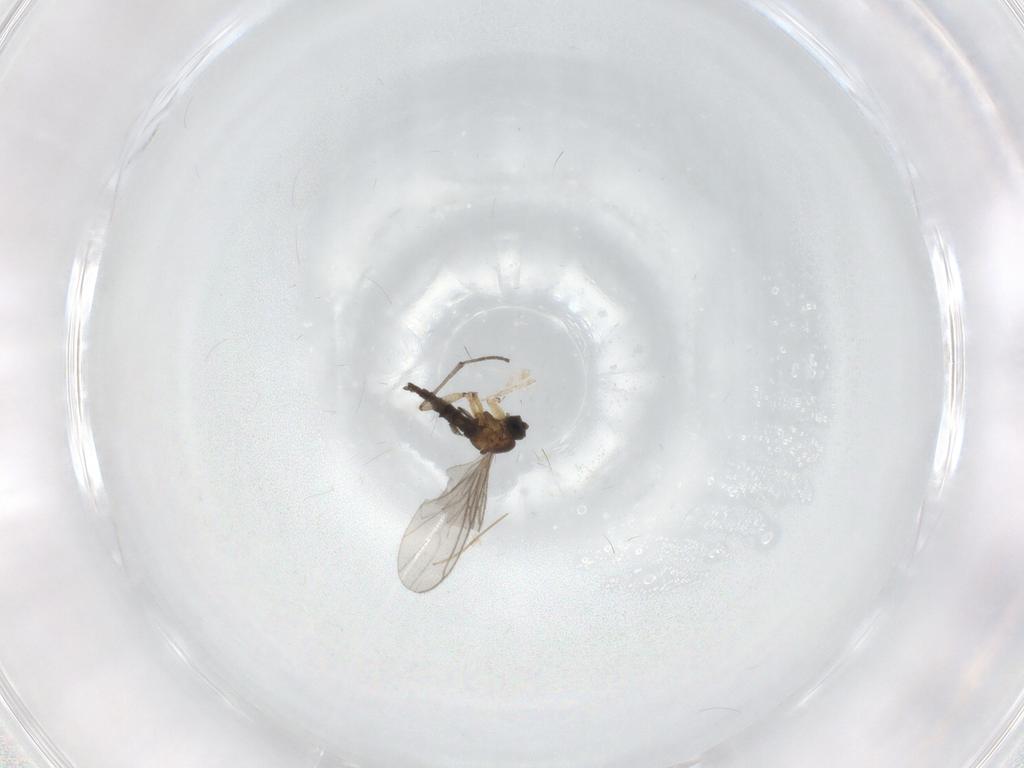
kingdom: Animalia
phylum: Arthropoda
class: Insecta
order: Diptera
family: Sciaridae
